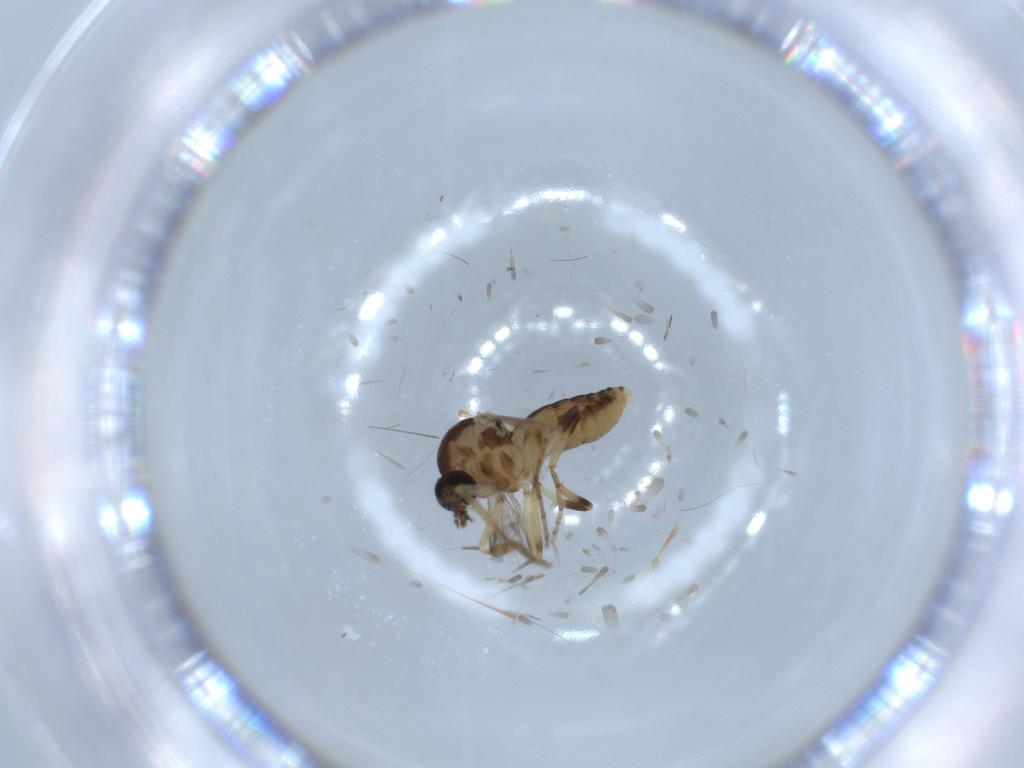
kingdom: Animalia
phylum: Arthropoda
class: Insecta
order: Diptera
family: Ceratopogonidae
